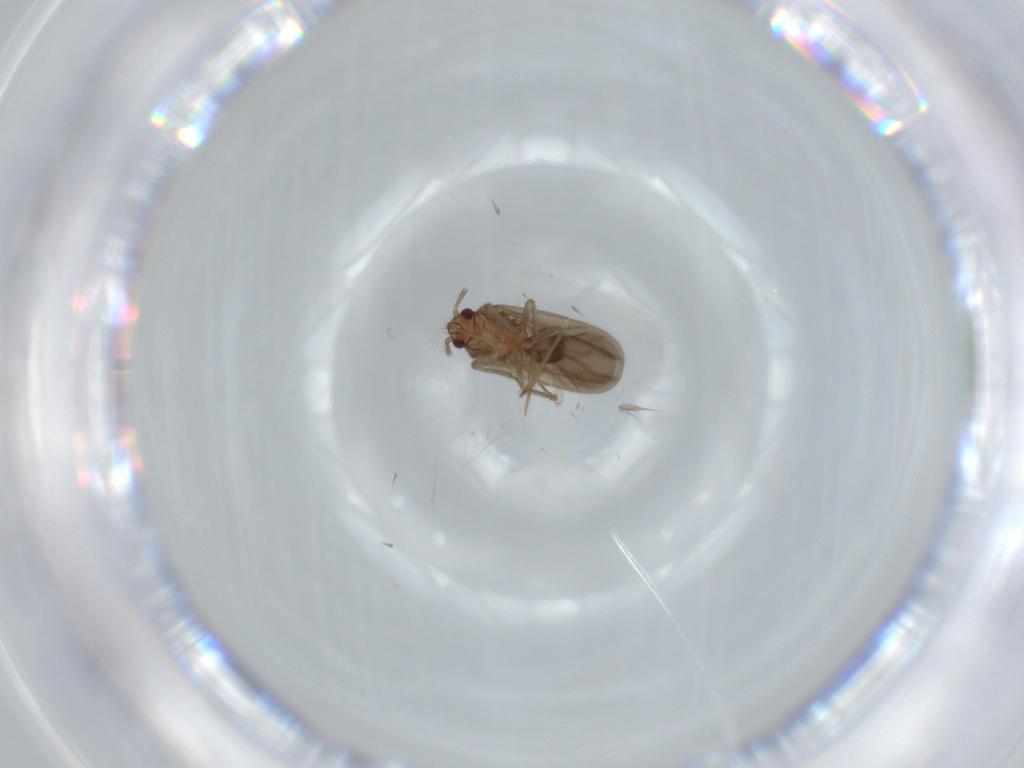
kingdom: Animalia
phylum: Arthropoda
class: Insecta
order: Hemiptera
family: Ceratocombidae
